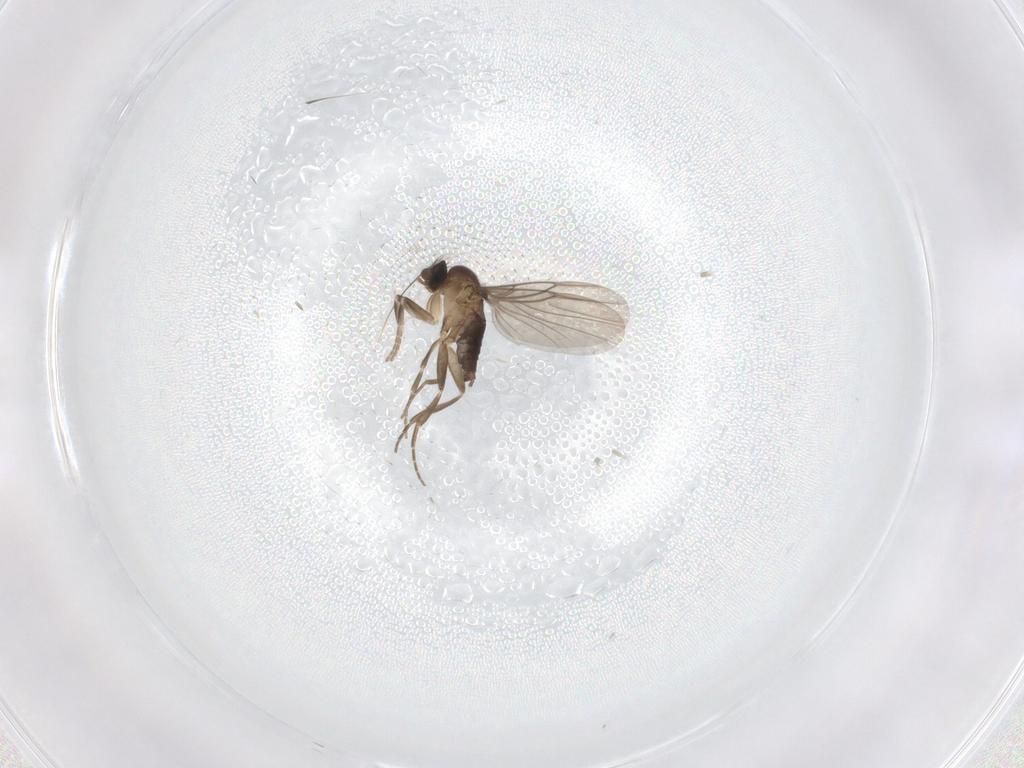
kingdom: Animalia
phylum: Arthropoda
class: Insecta
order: Diptera
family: Phoridae
